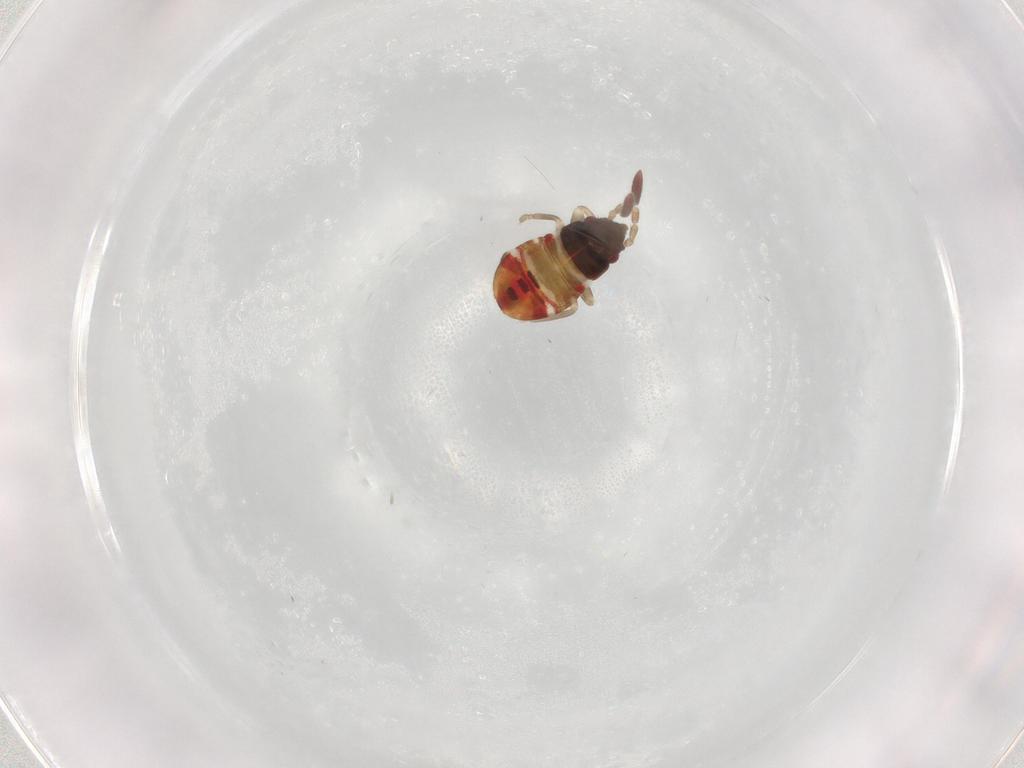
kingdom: Animalia
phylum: Arthropoda
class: Insecta
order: Hemiptera
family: Rhyparochromidae
